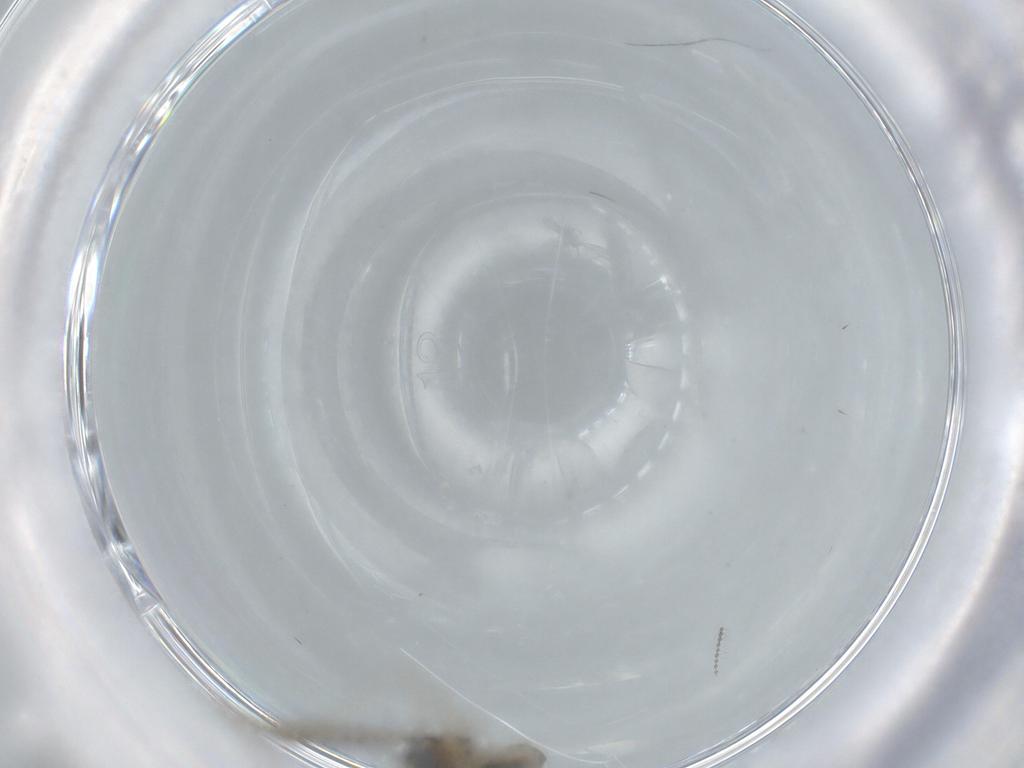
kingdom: Animalia
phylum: Arthropoda
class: Insecta
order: Diptera
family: Cecidomyiidae
